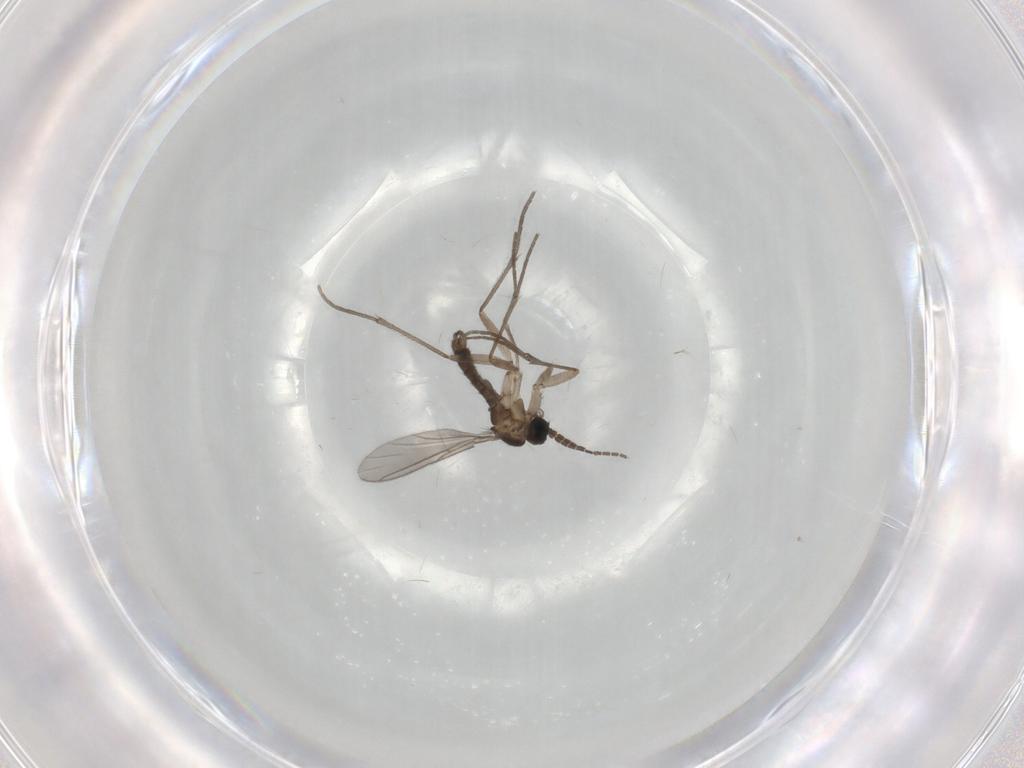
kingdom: Animalia
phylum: Arthropoda
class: Insecta
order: Diptera
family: Sciaridae
